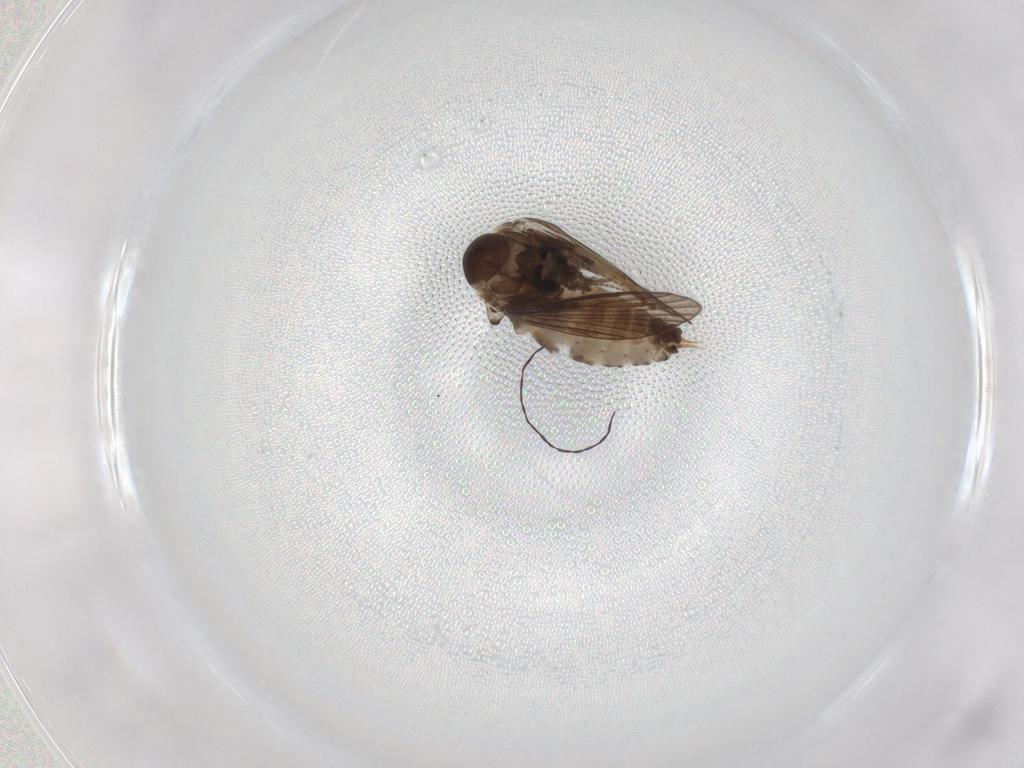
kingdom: Animalia
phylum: Arthropoda
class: Insecta
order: Diptera
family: Psychodidae
